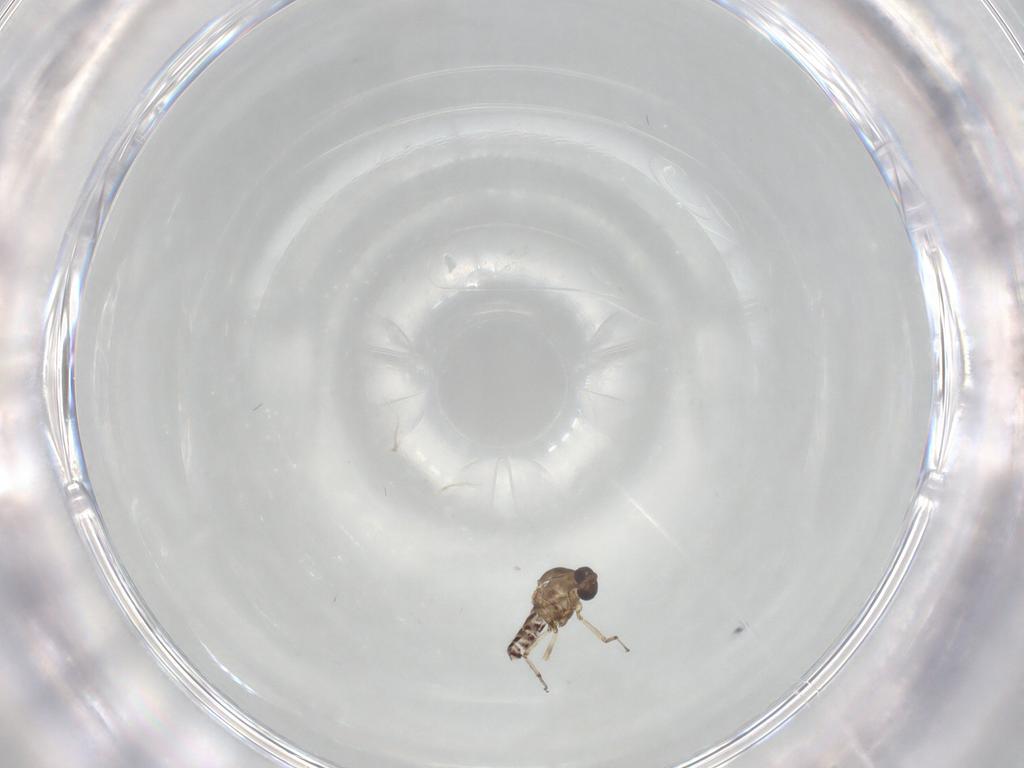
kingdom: Animalia
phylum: Arthropoda
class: Insecta
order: Diptera
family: Ceratopogonidae
